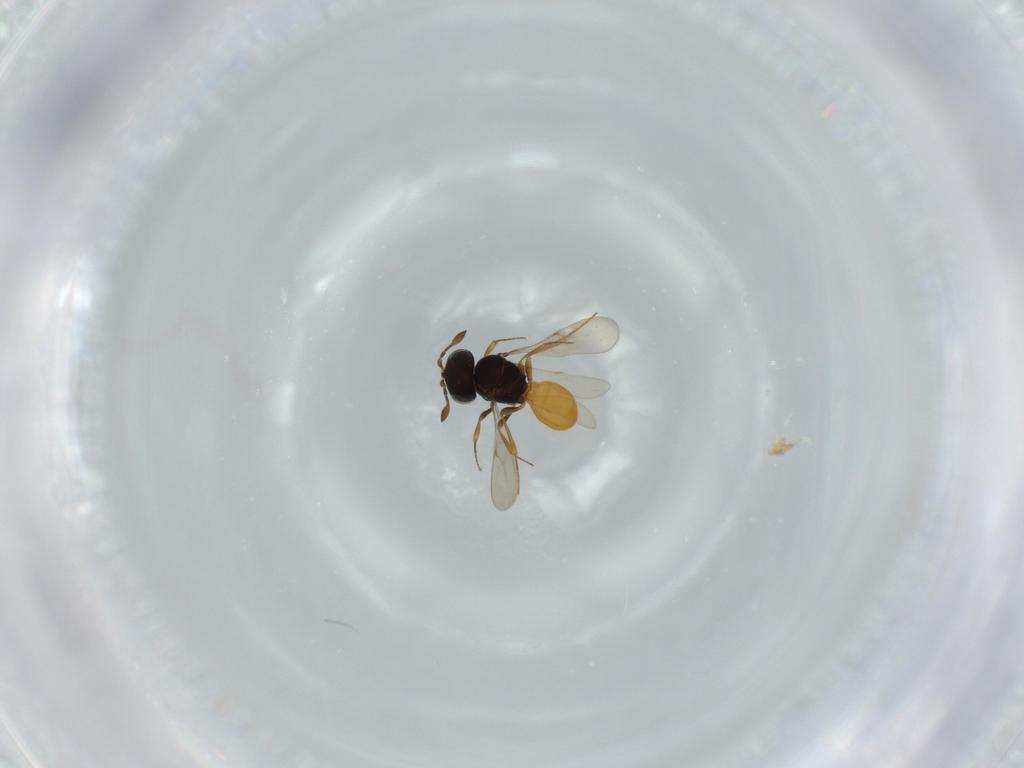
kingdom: Animalia
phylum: Arthropoda
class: Insecta
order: Hymenoptera
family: Scelionidae
